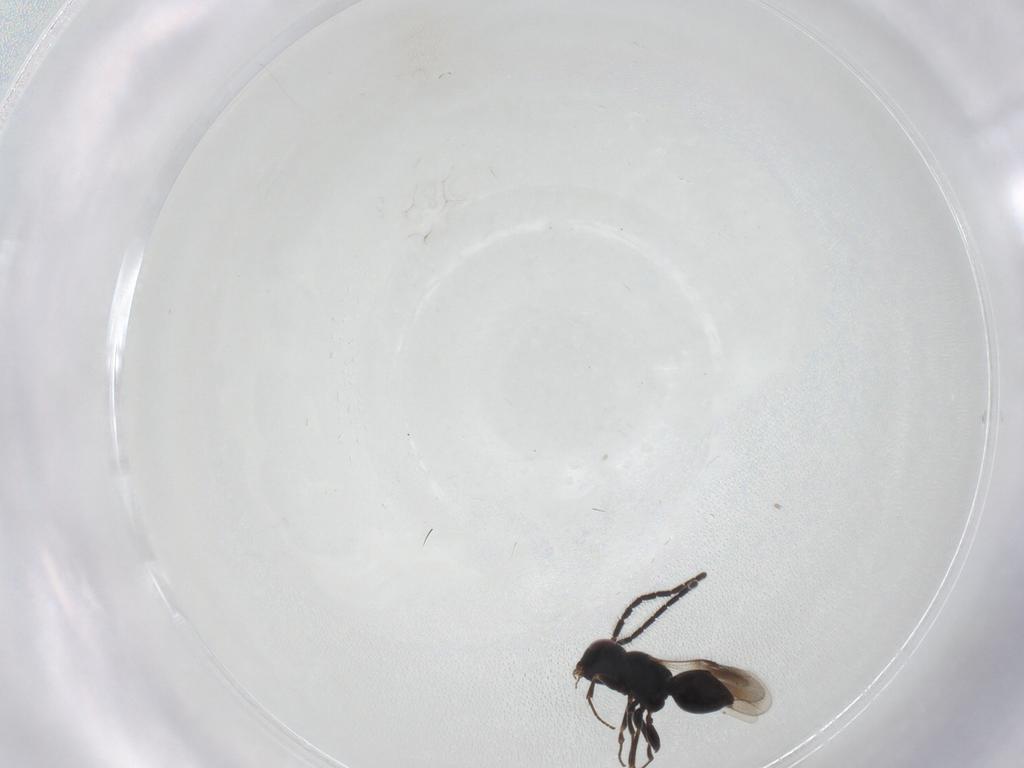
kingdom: Animalia
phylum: Arthropoda
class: Insecta
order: Hymenoptera
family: Megaspilidae
